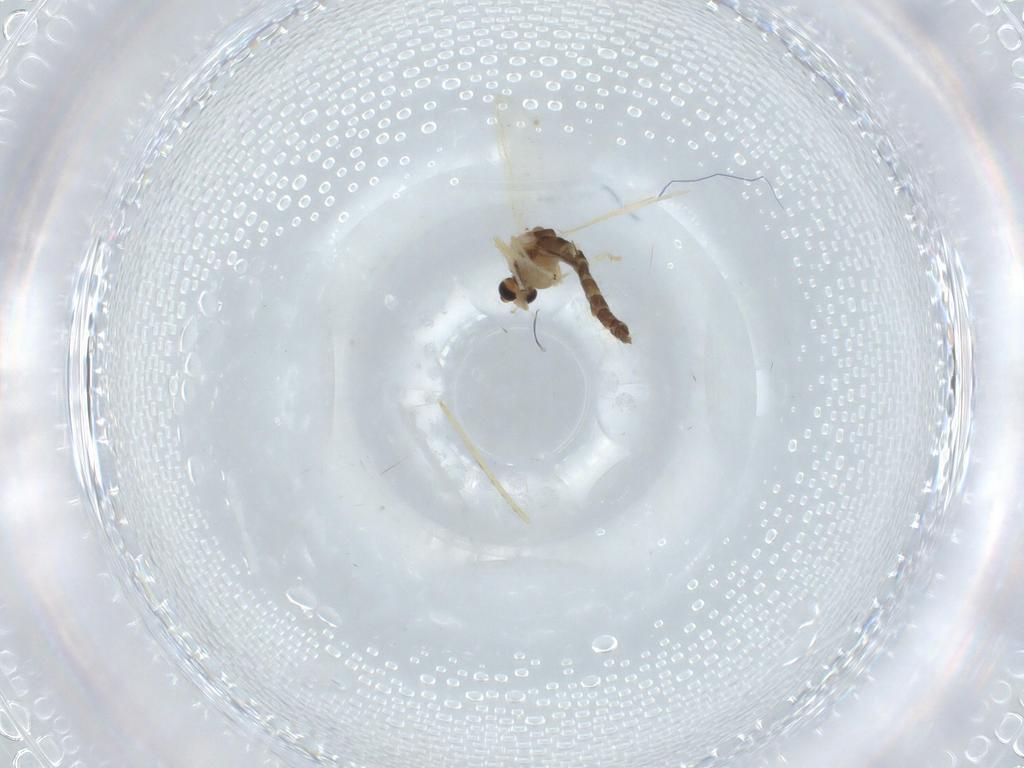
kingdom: Animalia
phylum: Arthropoda
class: Insecta
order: Diptera
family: Chironomidae
